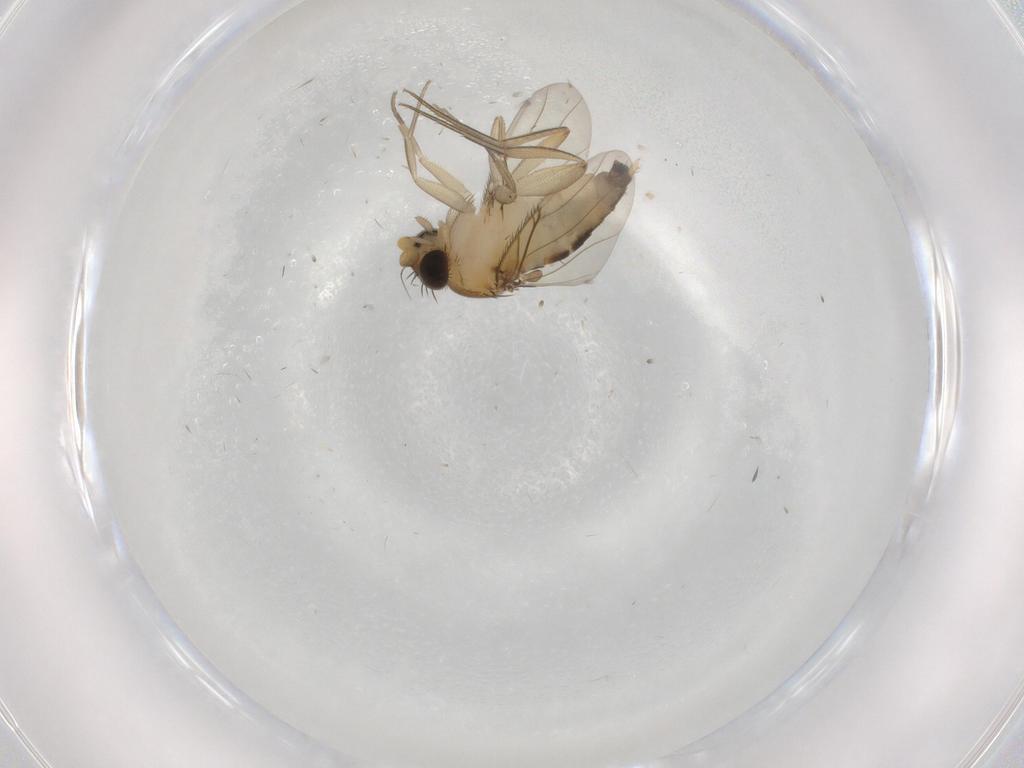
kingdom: Animalia
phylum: Arthropoda
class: Insecta
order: Diptera
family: Phoridae
